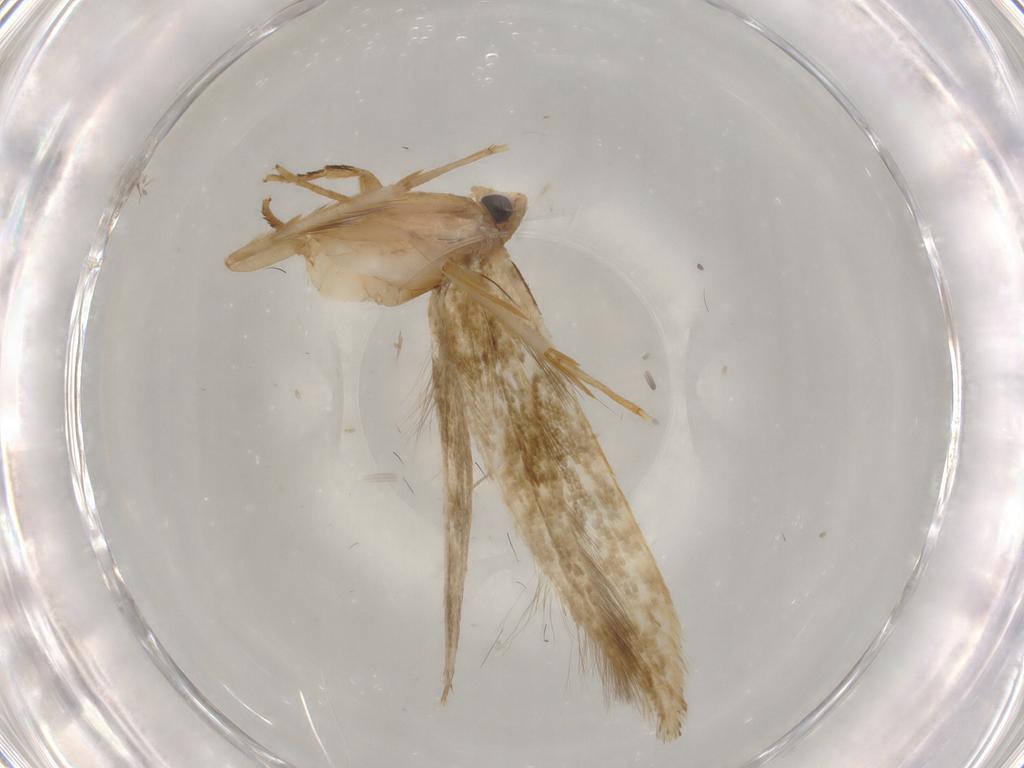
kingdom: Animalia
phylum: Arthropoda
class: Insecta
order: Lepidoptera
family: Tineidae
